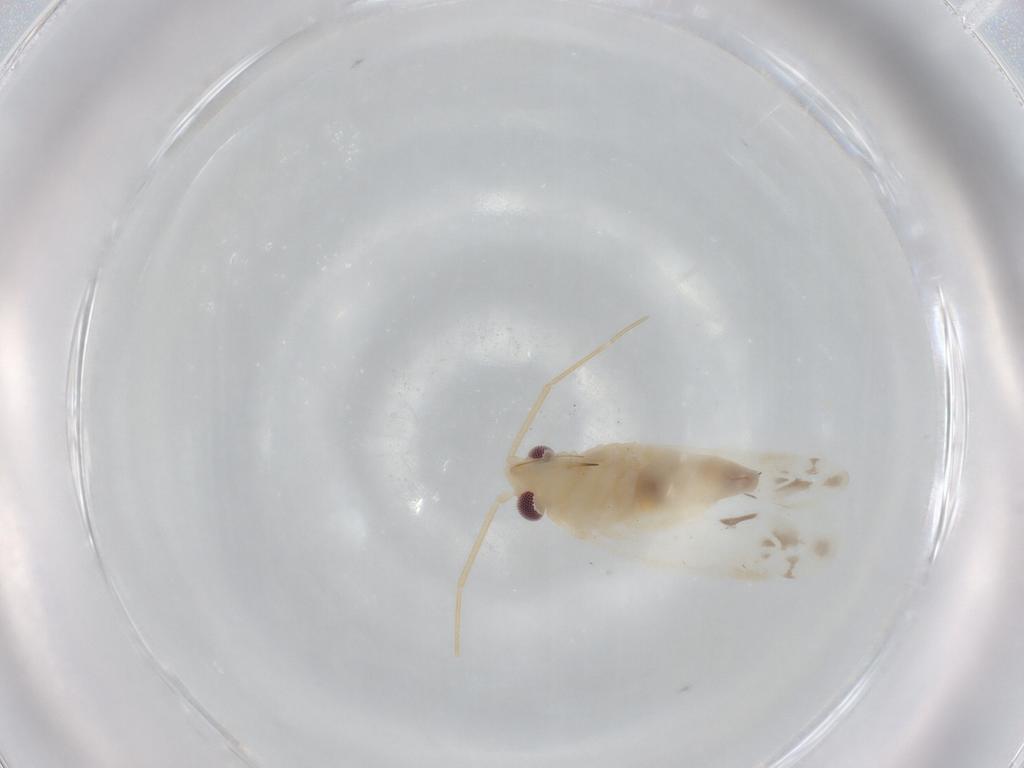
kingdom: Animalia
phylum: Arthropoda
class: Insecta
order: Hemiptera
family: Miridae
